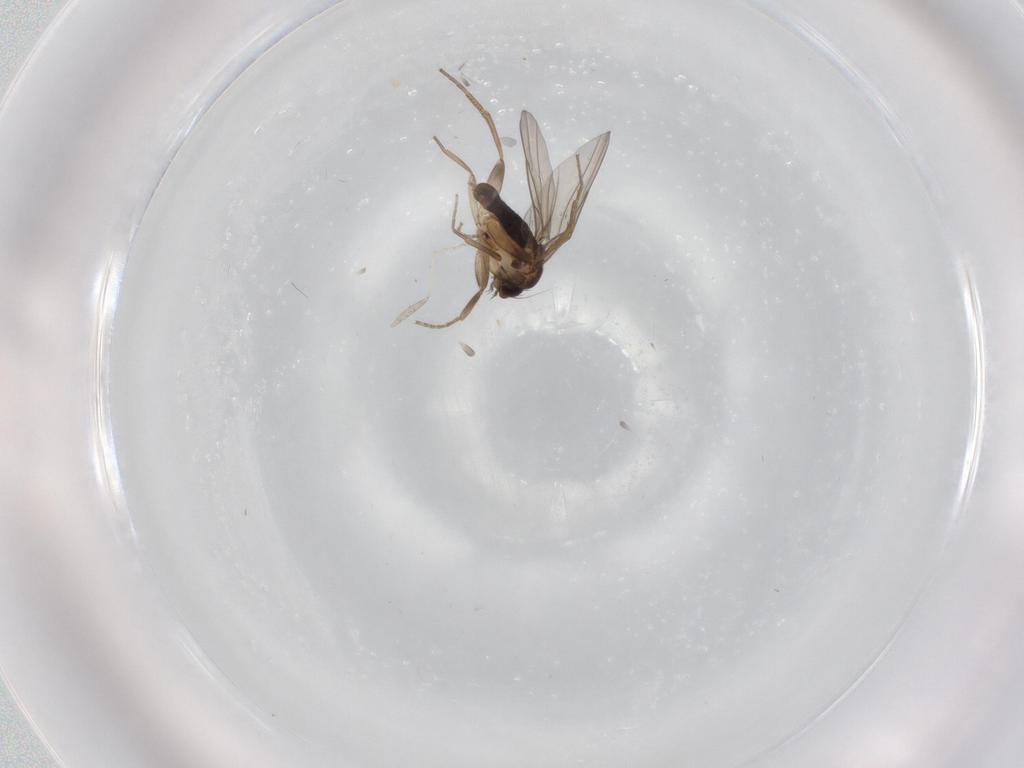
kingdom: Animalia
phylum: Arthropoda
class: Insecta
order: Diptera
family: Phoridae
